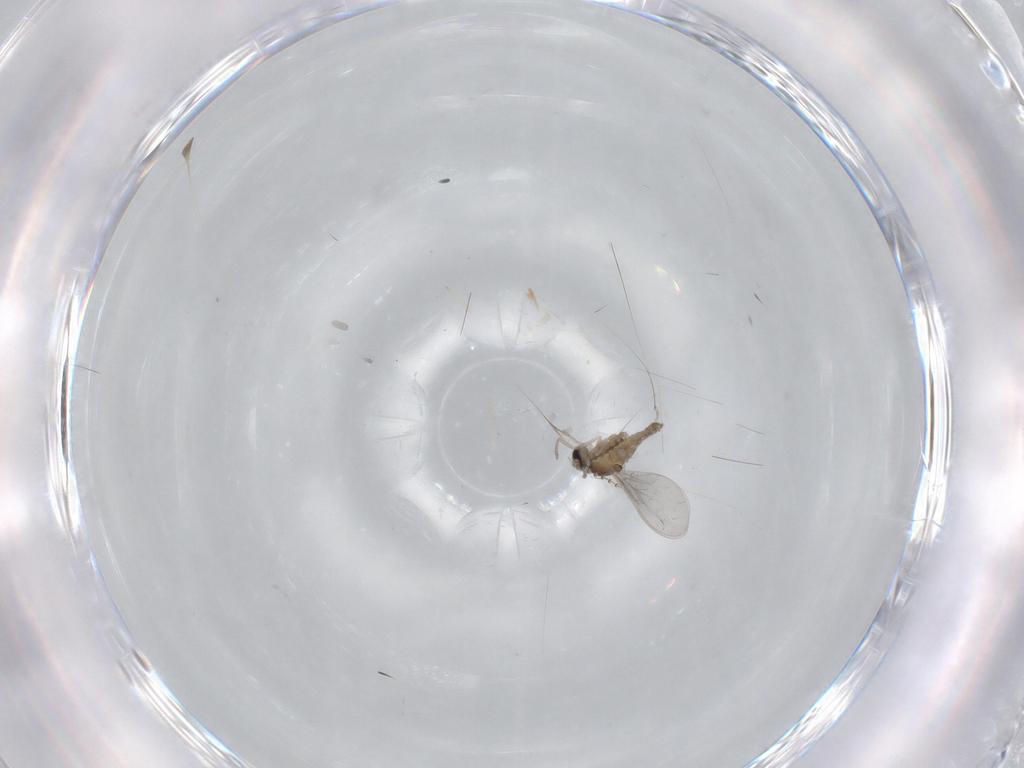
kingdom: Animalia
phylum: Arthropoda
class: Insecta
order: Diptera
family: Cecidomyiidae
